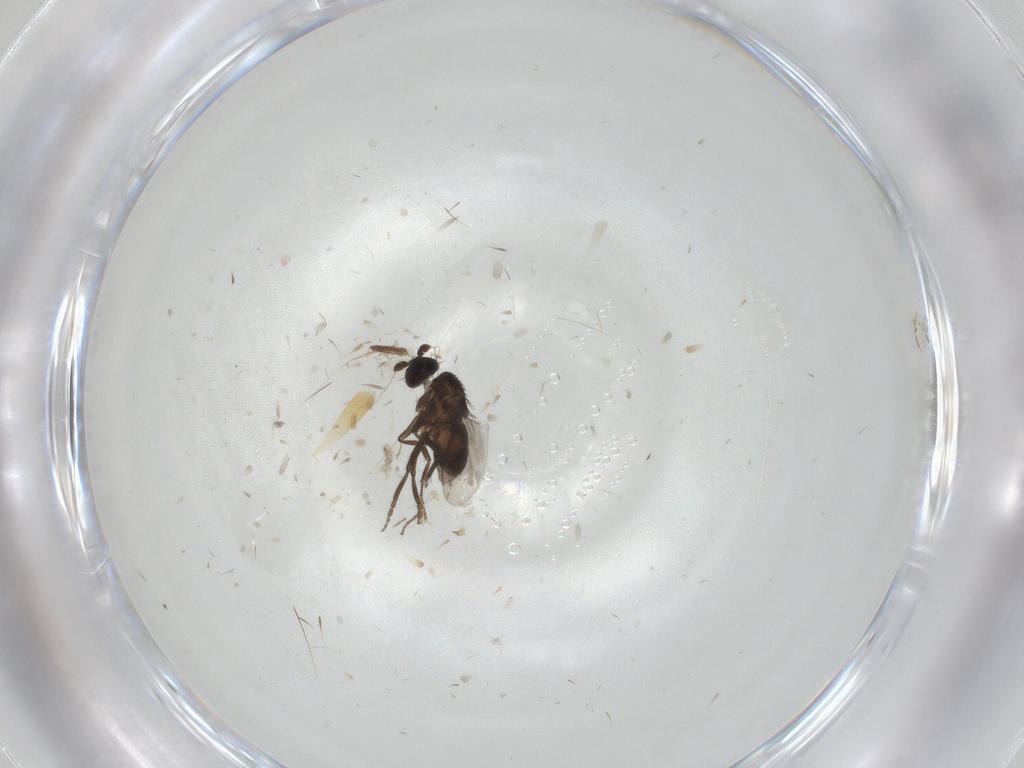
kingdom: Animalia
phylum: Arthropoda
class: Insecta
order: Diptera
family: Sphaeroceridae
